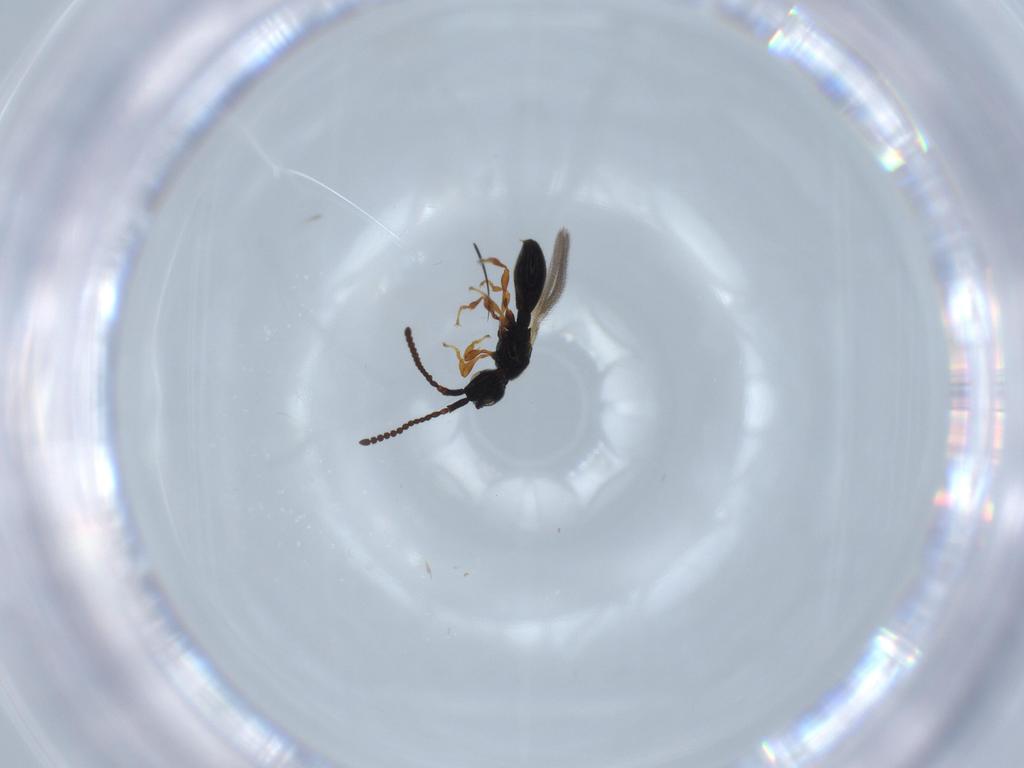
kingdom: Animalia
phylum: Arthropoda
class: Insecta
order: Hymenoptera
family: Diapriidae
